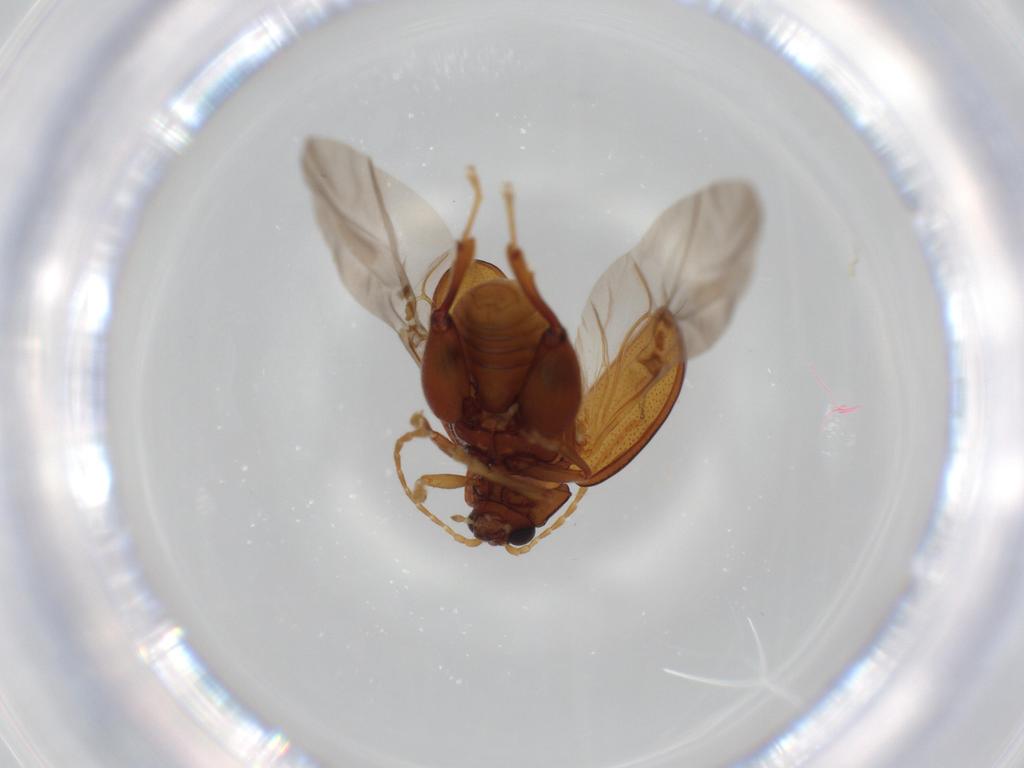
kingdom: Animalia
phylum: Arthropoda
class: Insecta
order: Coleoptera
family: Chrysomelidae
